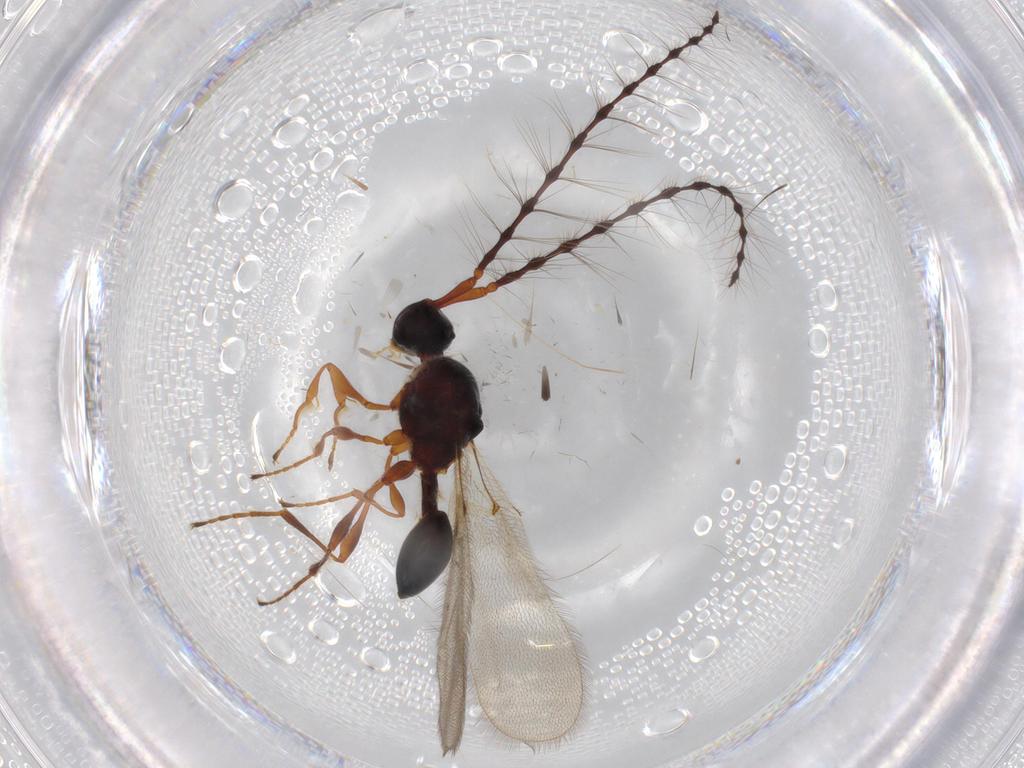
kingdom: Animalia
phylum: Arthropoda
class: Insecta
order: Hymenoptera
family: Diapriidae
